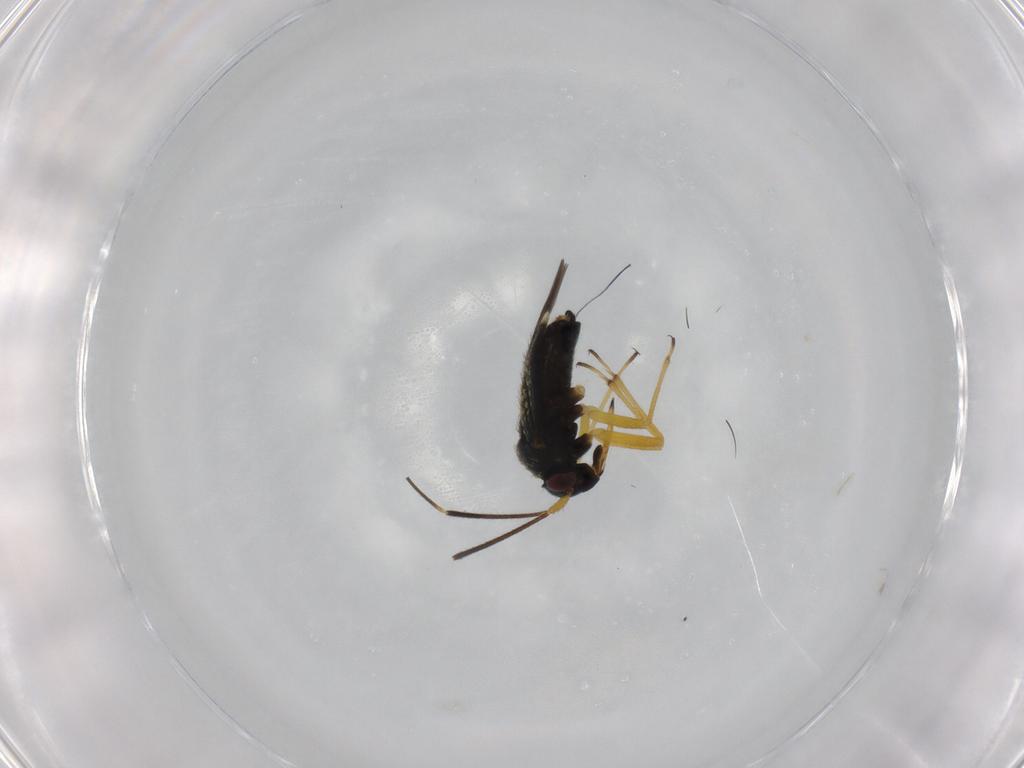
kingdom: Animalia
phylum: Arthropoda
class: Insecta
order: Hemiptera
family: Miridae
